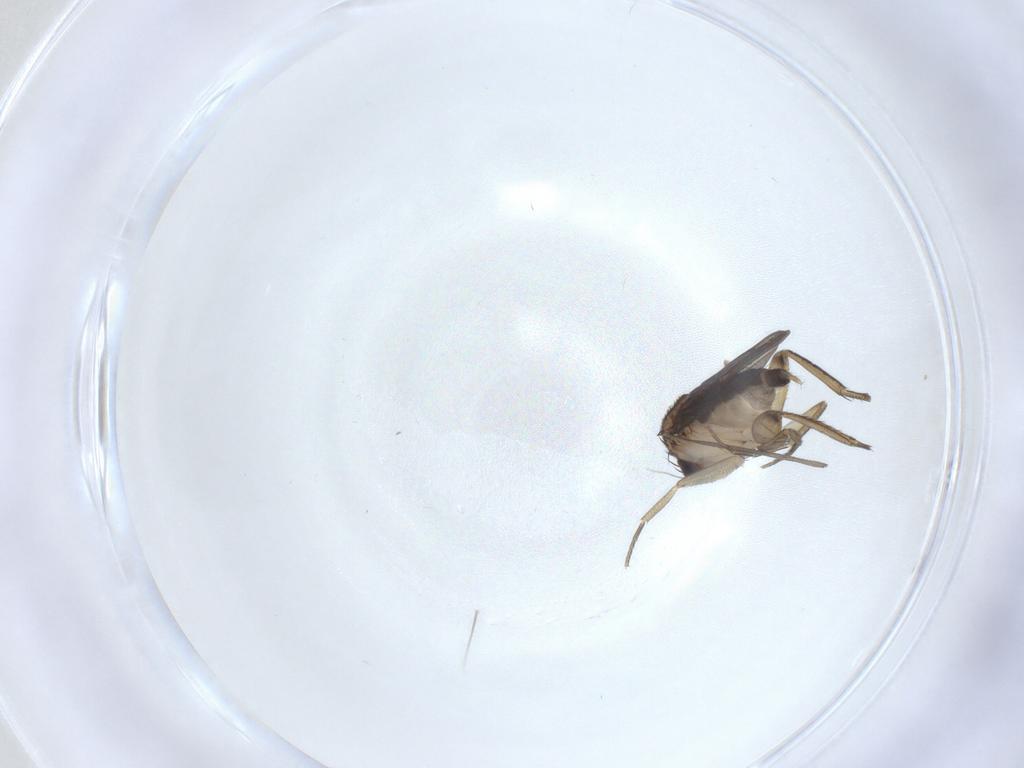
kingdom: Animalia
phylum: Arthropoda
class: Insecta
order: Diptera
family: Phoridae
